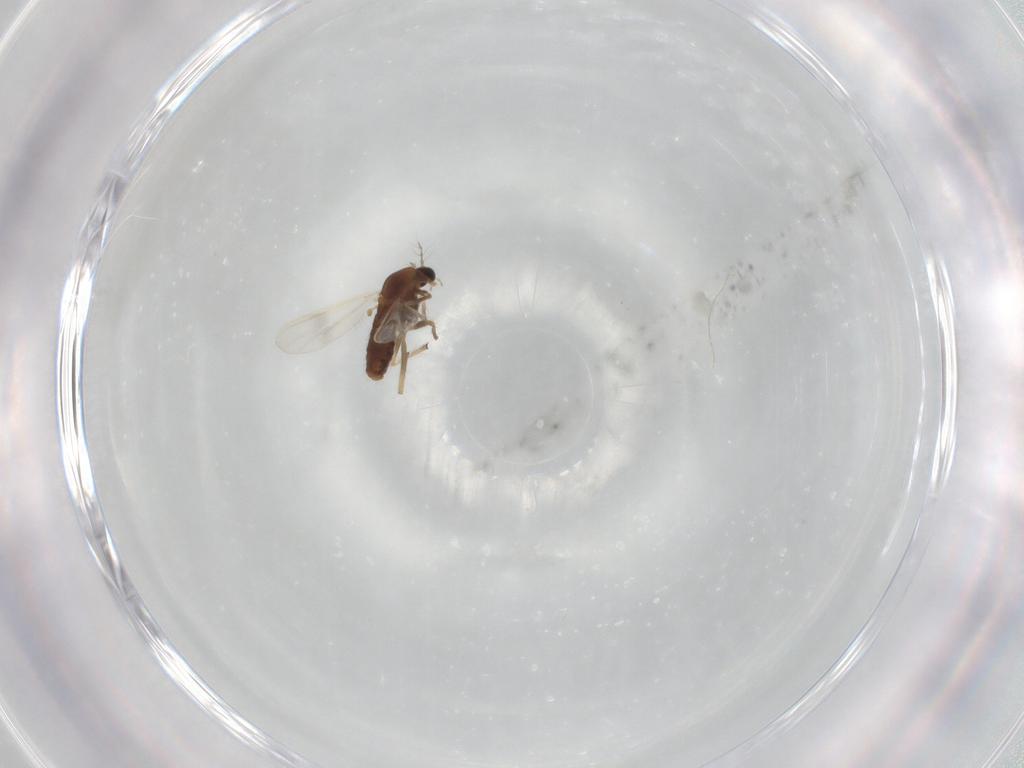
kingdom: Animalia
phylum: Arthropoda
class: Insecta
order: Diptera
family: Chironomidae
